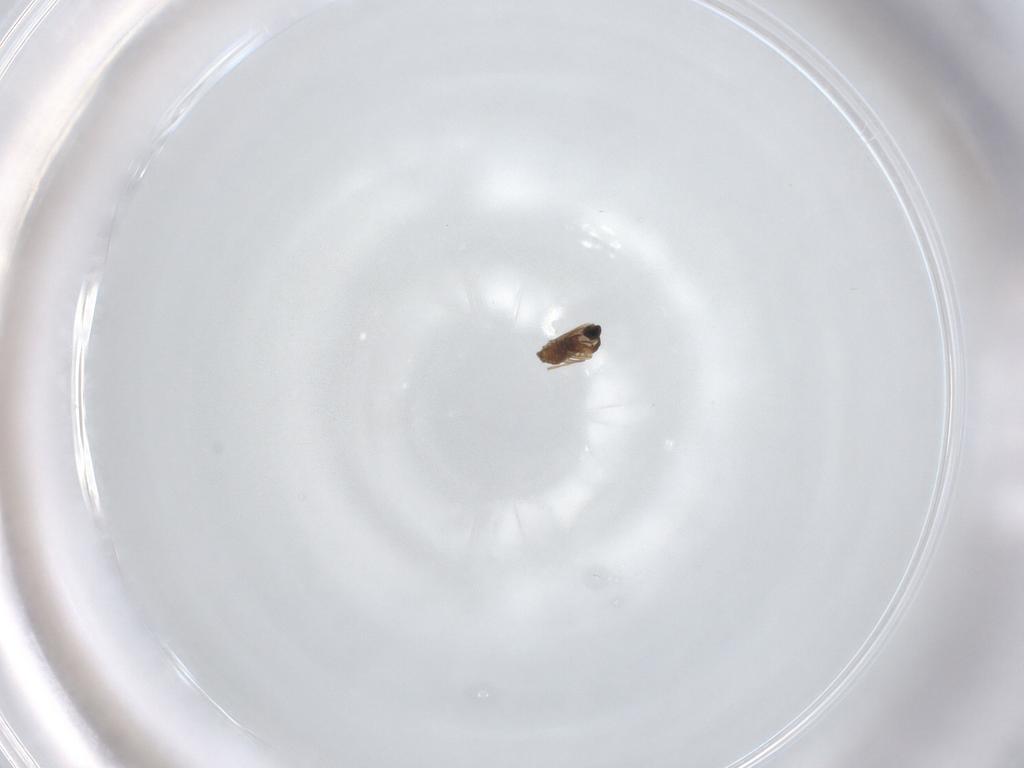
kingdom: Animalia
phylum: Arthropoda
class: Insecta
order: Diptera
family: Cecidomyiidae
